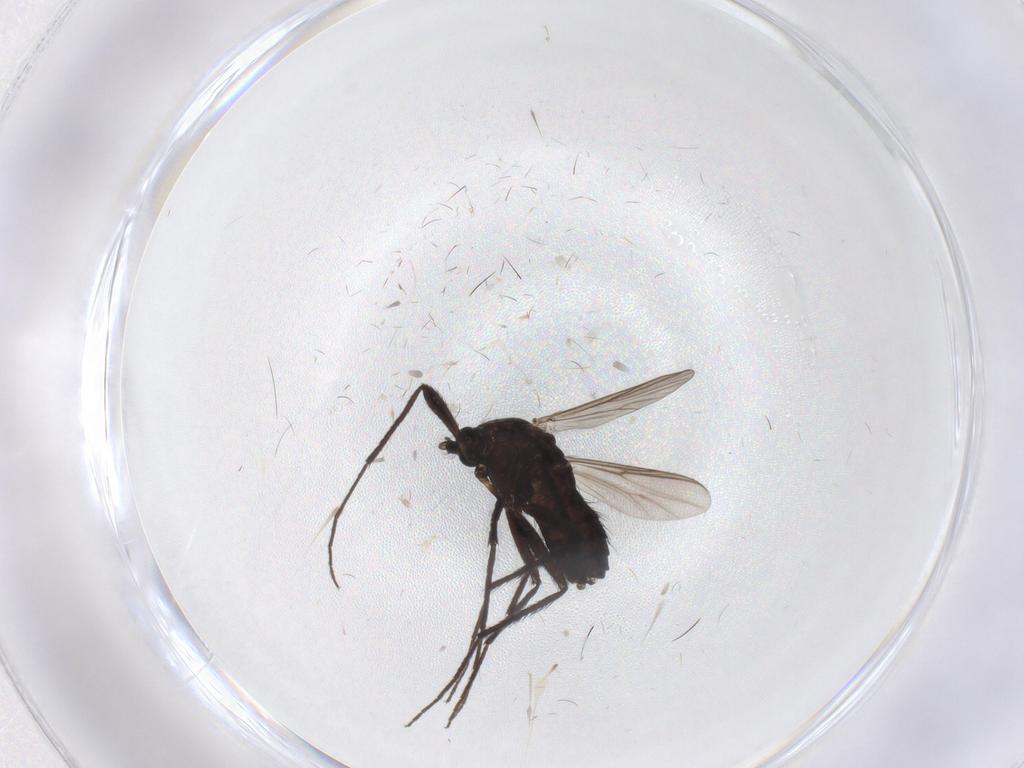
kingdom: Animalia
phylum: Arthropoda
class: Insecta
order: Diptera
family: Chironomidae
